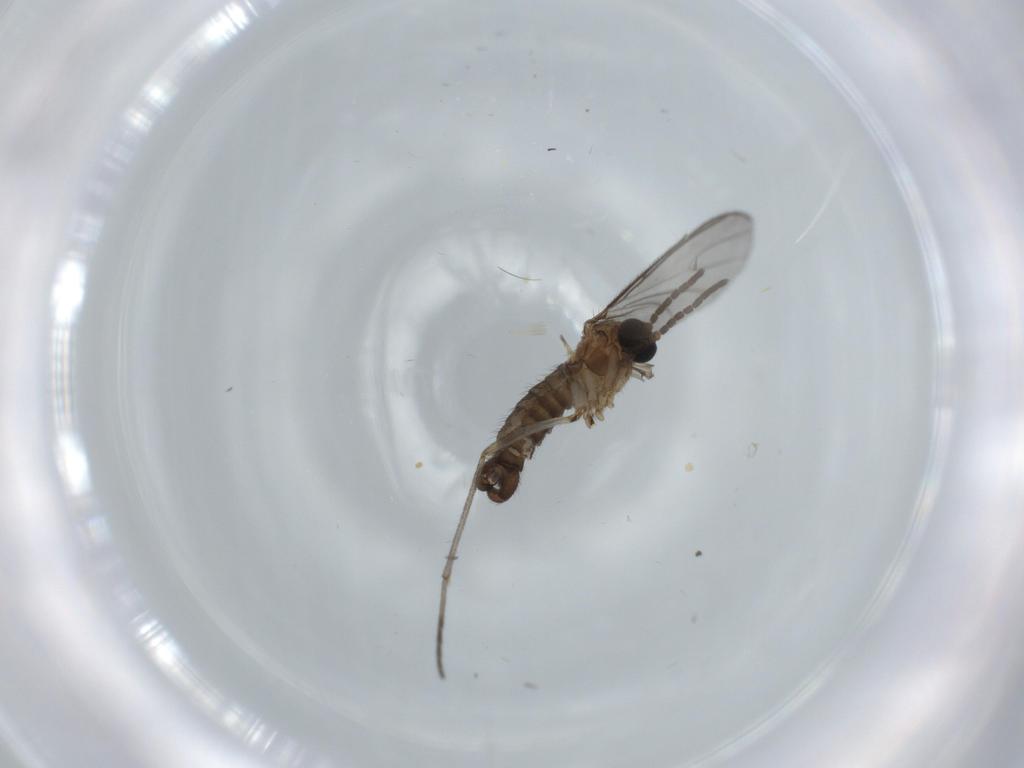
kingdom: Animalia
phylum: Arthropoda
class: Insecta
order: Diptera
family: Sciaridae
